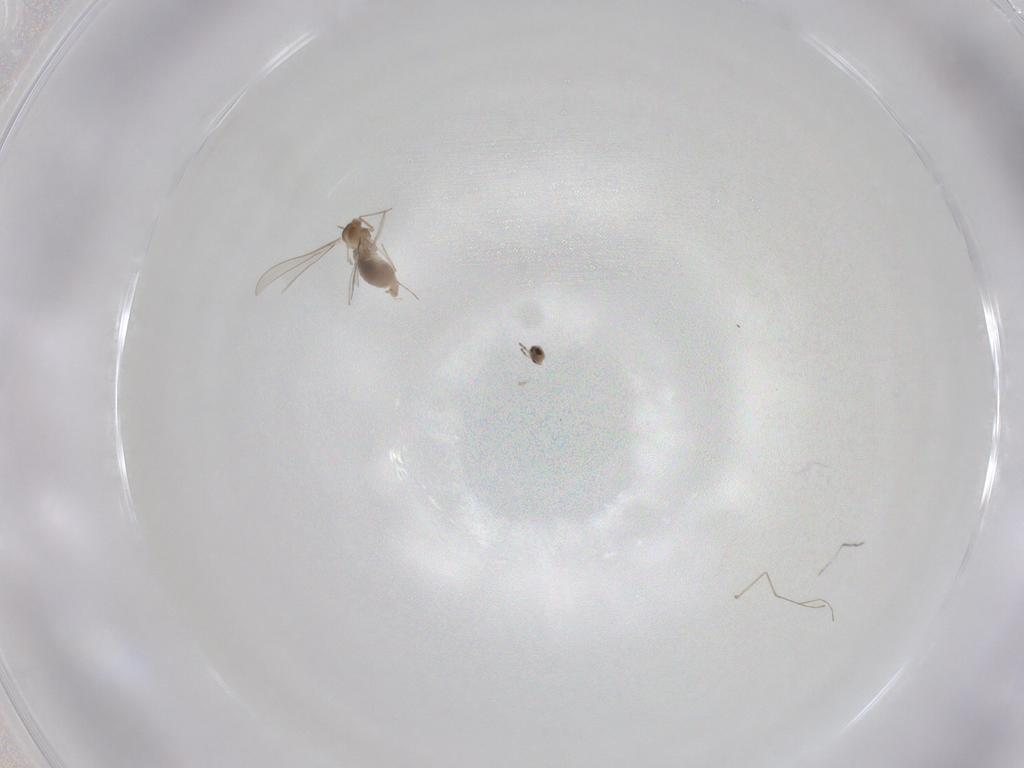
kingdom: Animalia
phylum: Arthropoda
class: Insecta
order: Diptera
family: Cecidomyiidae
